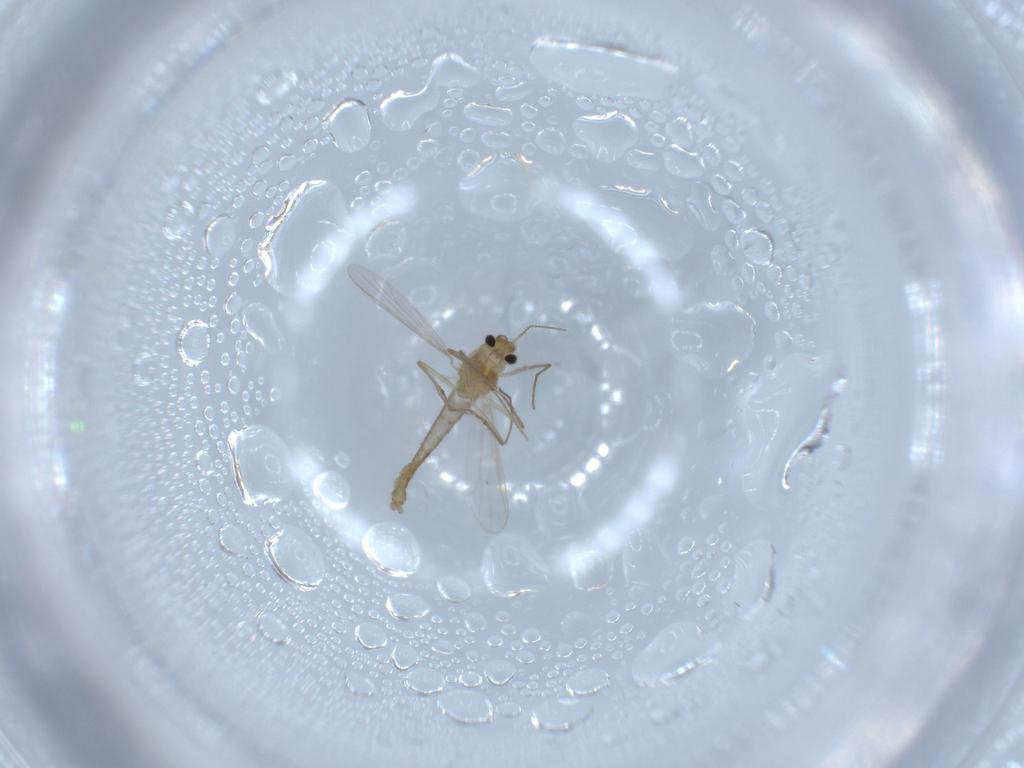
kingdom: Animalia
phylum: Arthropoda
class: Insecta
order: Diptera
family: Chironomidae
